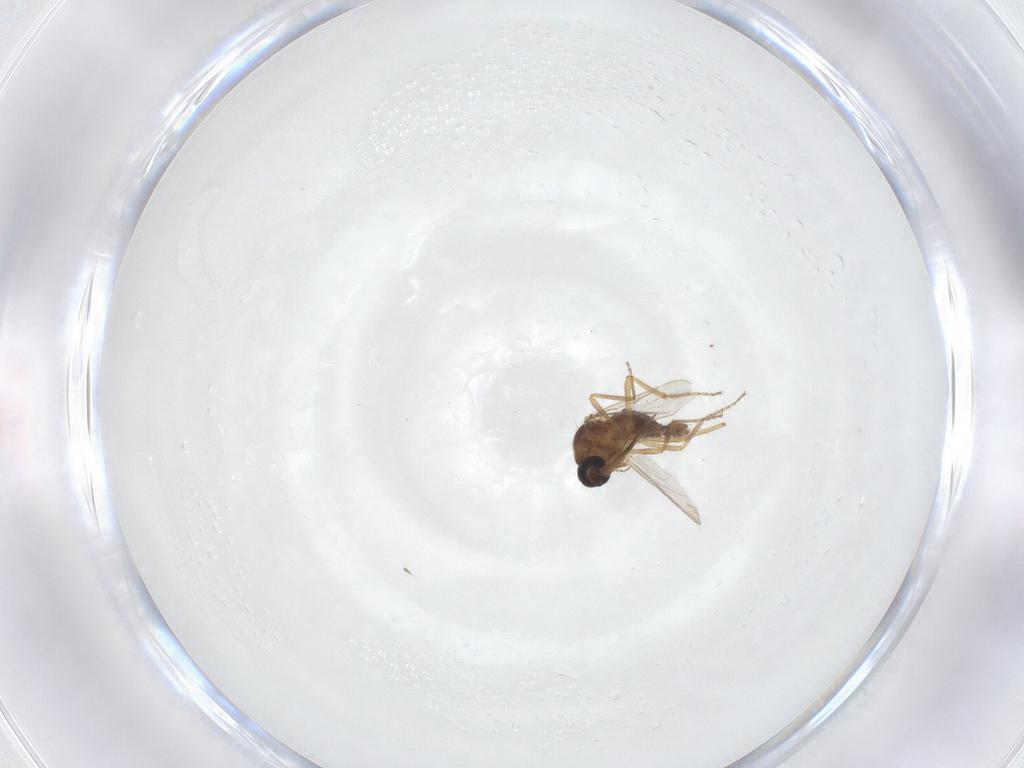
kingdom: Animalia
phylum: Arthropoda
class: Insecta
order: Diptera
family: Ceratopogonidae
